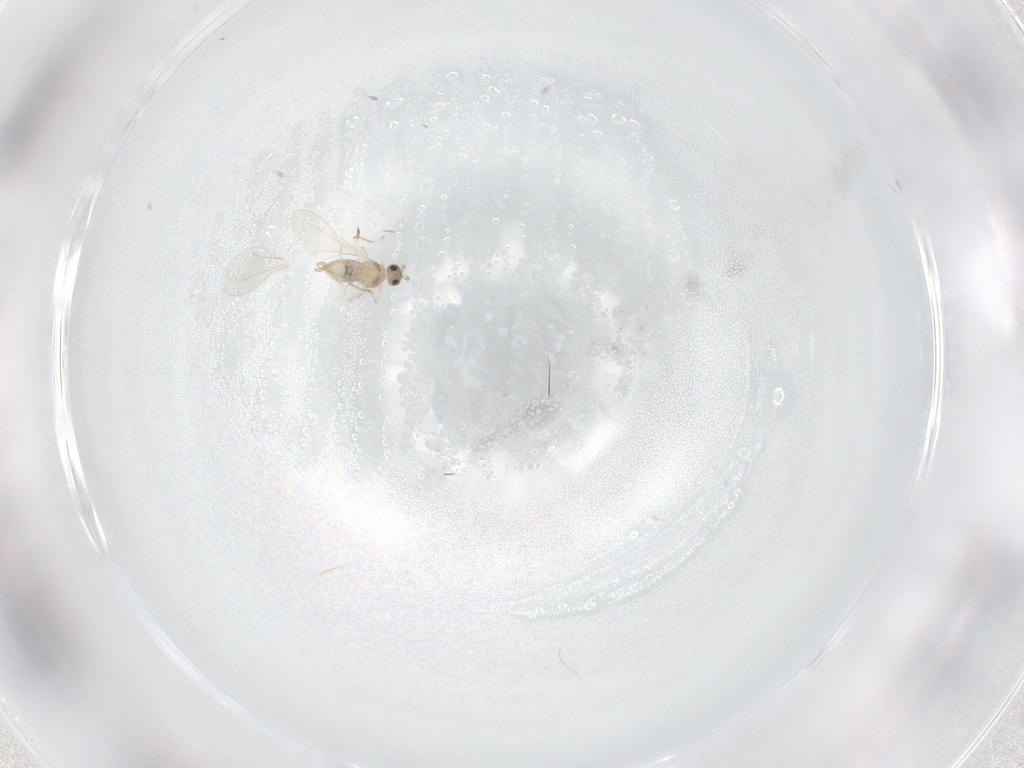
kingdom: Animalia
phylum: Arthropoda
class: Insecta
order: Diptera
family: Cecidomyiidae
